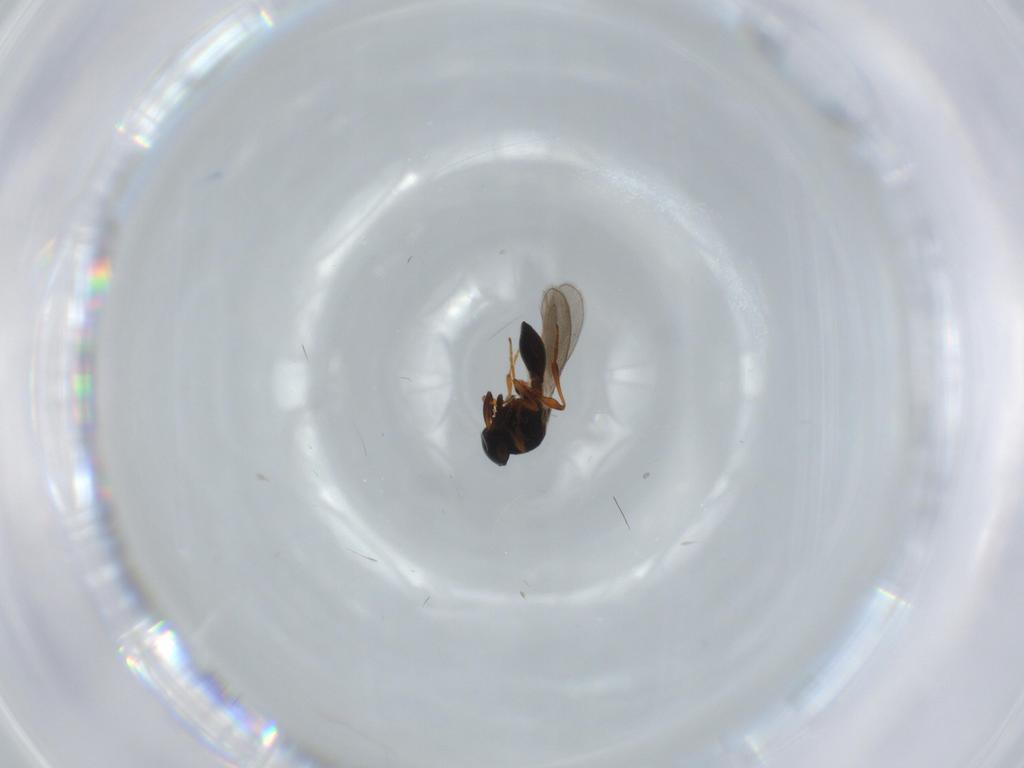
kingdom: Animalia
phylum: Arthropoda
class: Insecta
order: Hymenoptera
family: Platygastridae
